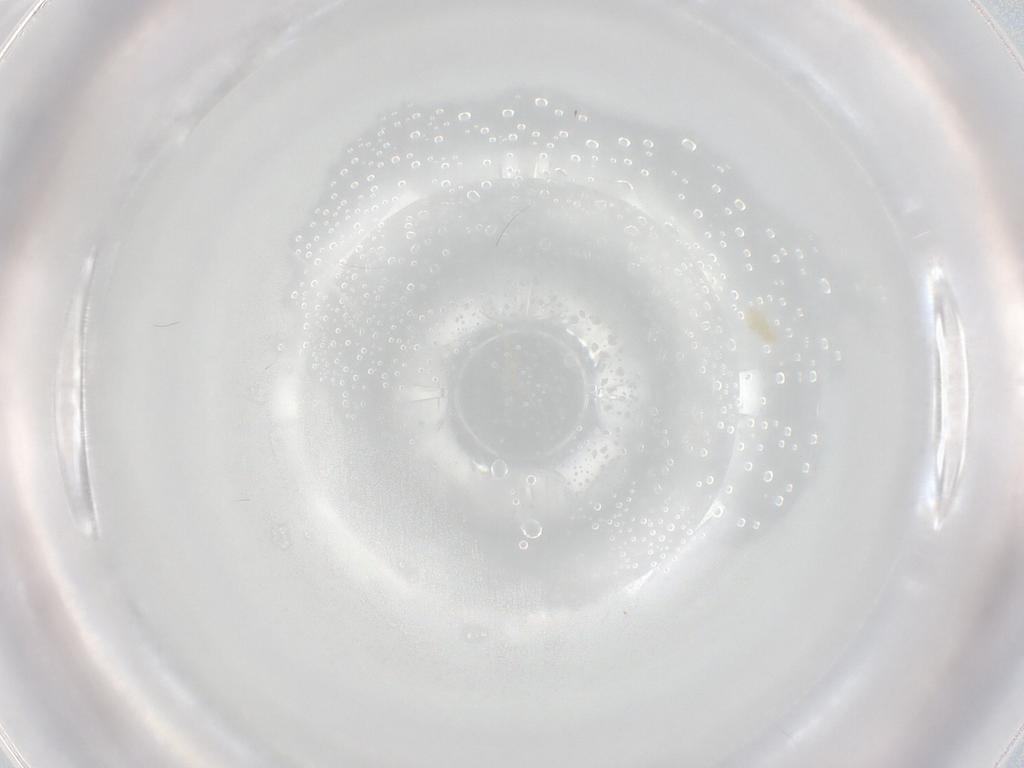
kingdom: Animalia
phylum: Arthropoda
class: Arachnida
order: Trombidiformes
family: Eupodidae
